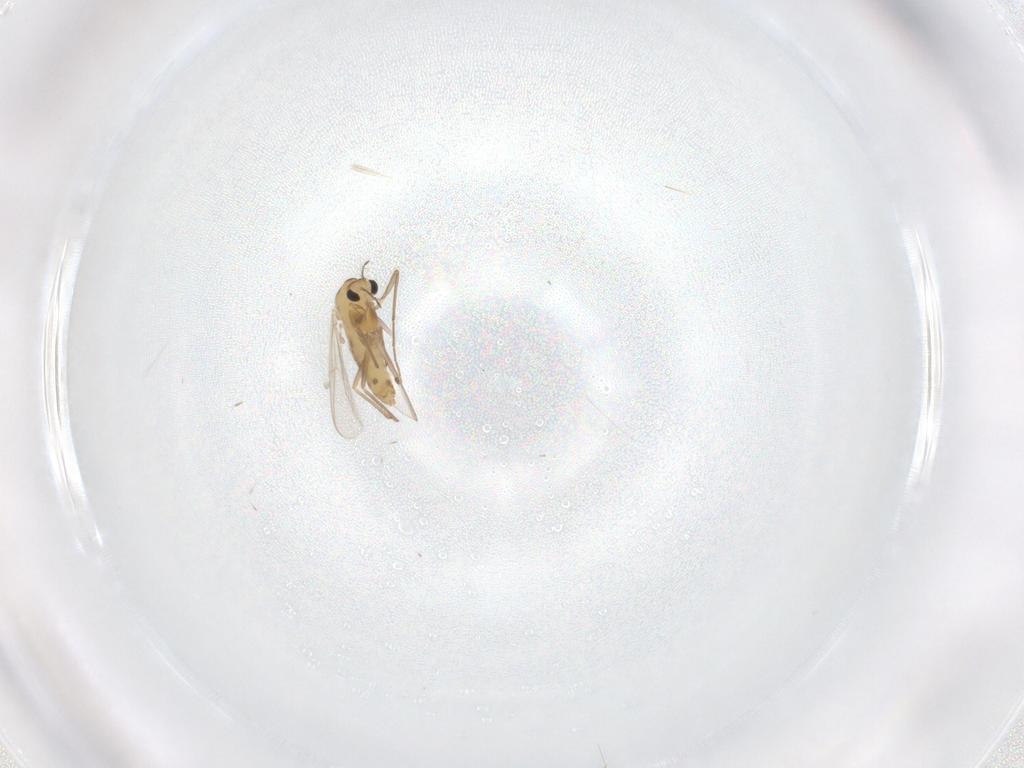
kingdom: Animalia
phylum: Arthropoda
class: Insecta
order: Diptera
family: Chironomidae
